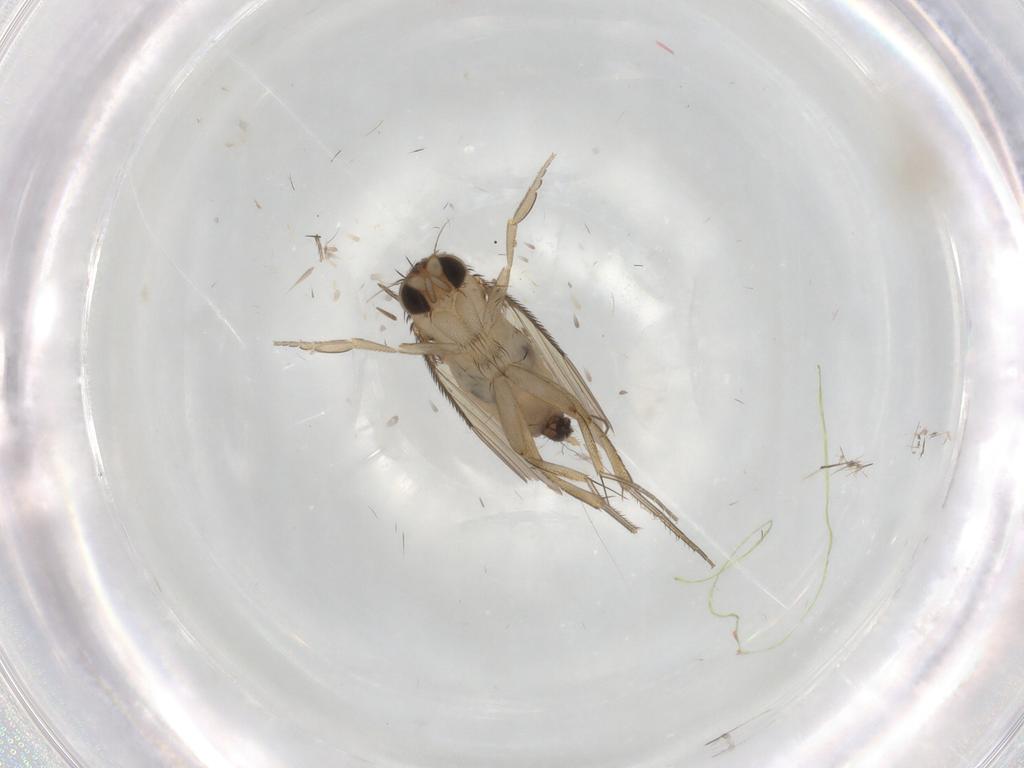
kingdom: Animalia
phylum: Arthropoda
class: Insecta
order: Diptera
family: Phoridae
